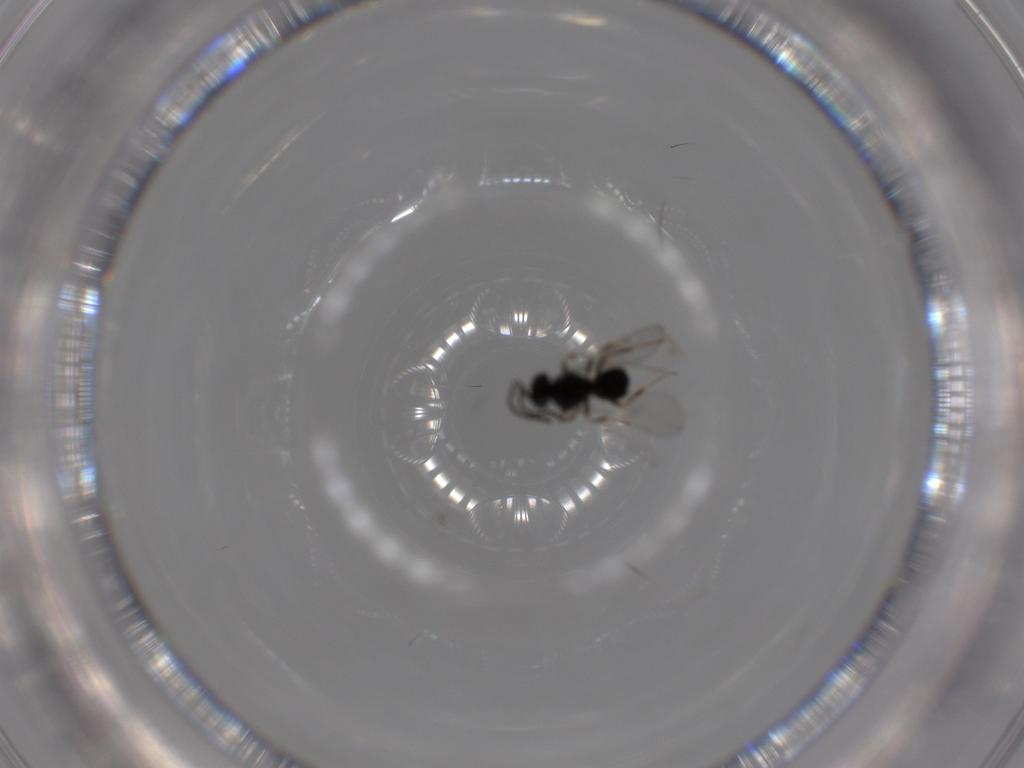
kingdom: Animalia
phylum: Arthropoda
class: Insecta
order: Hymenoptera
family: Scelionidae
